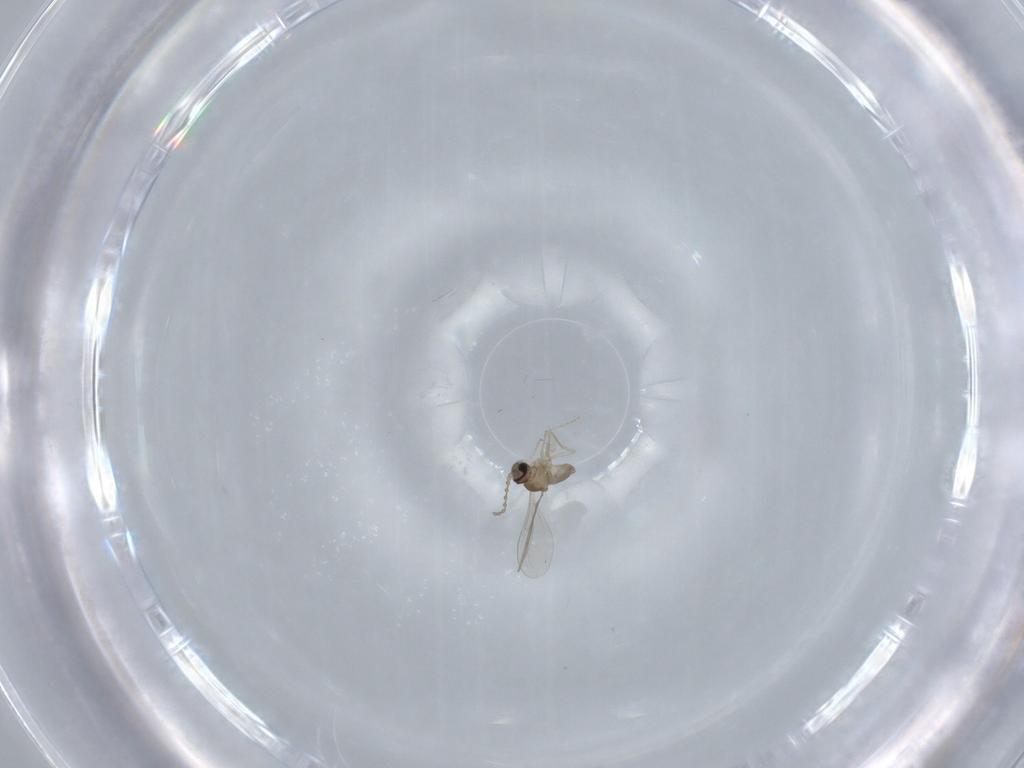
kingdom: Animalia
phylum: Arthropoda
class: Insecta
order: Diptera
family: Cecidomyiidae
